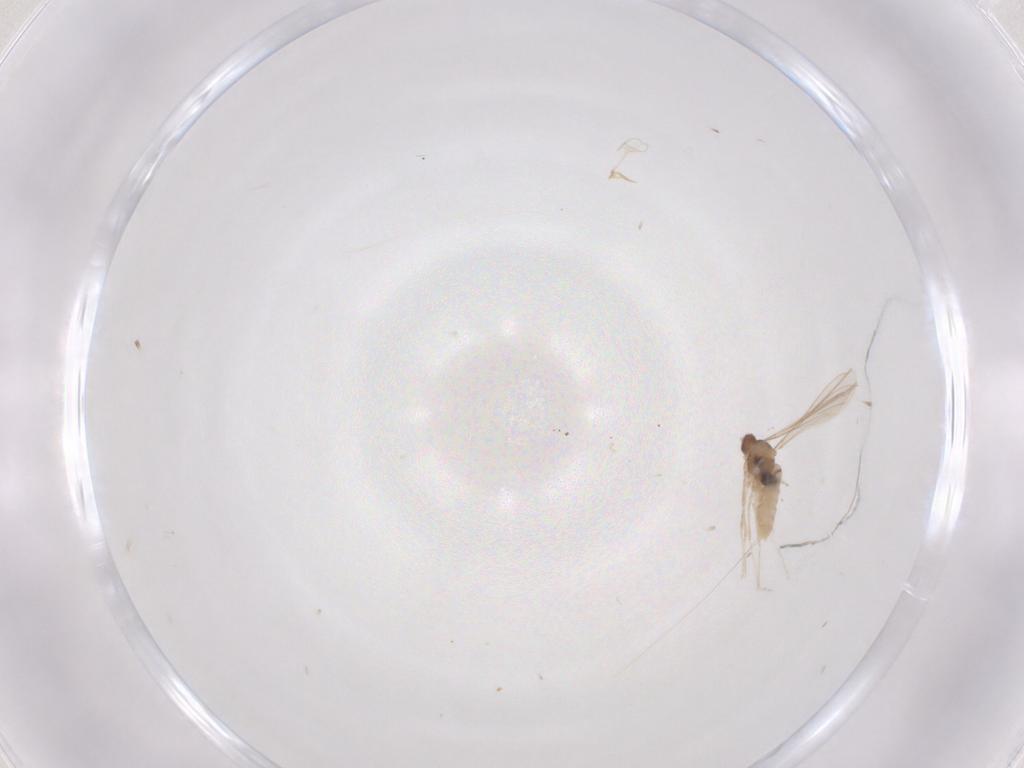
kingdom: Animalia
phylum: Arthropoda
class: Insecta
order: Diptera
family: Cecidomyiidae
